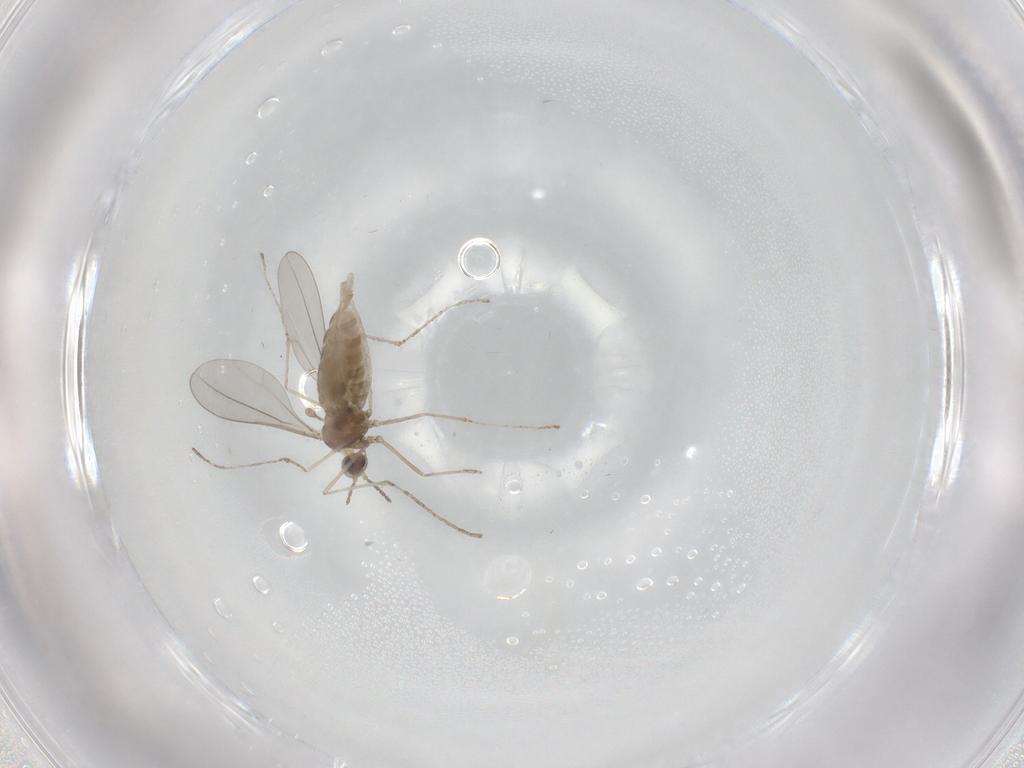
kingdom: Animalia
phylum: Arthropoda
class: Insecta
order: Diptera
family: Cecidomyiidae
